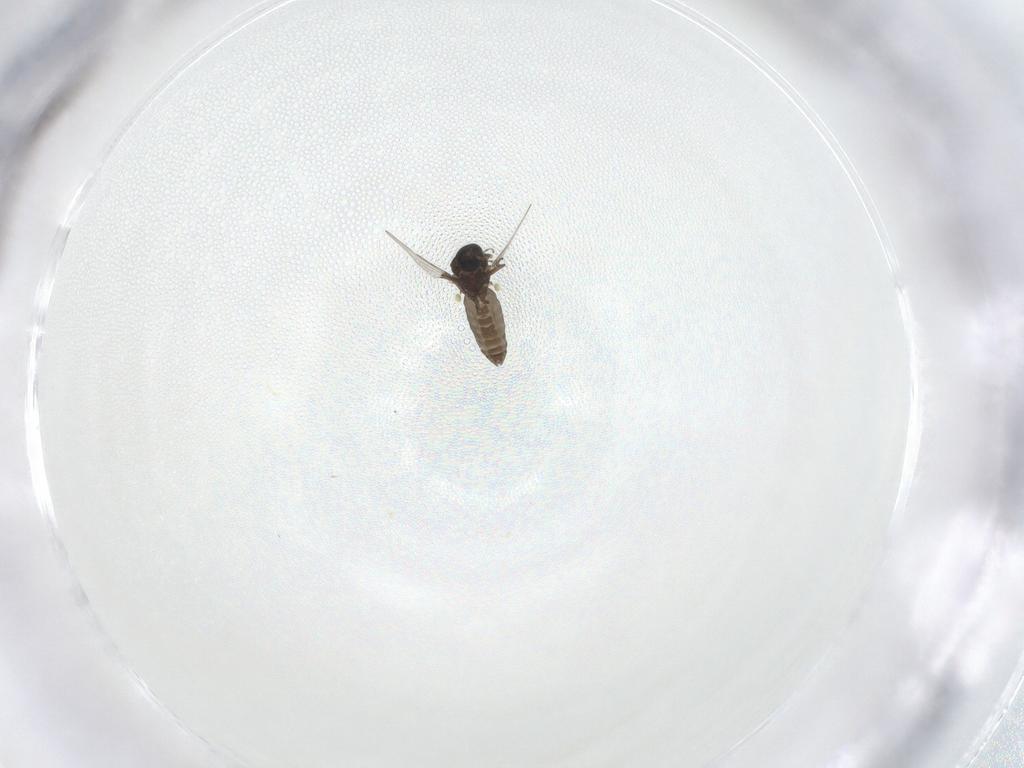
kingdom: Animalia
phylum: Arthropoda
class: Insecta
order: Diptera
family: Ceratopogonidae
